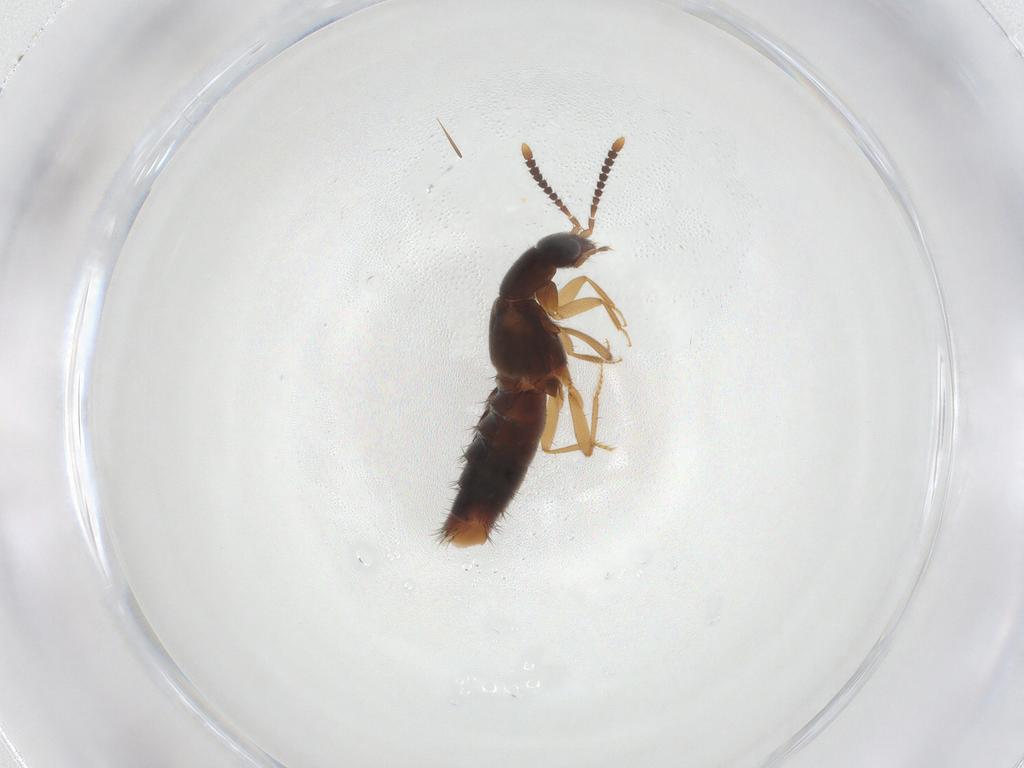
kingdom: Animalia
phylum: Arthropoda
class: Insecta
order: Coleoptera
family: Staphylinidae
